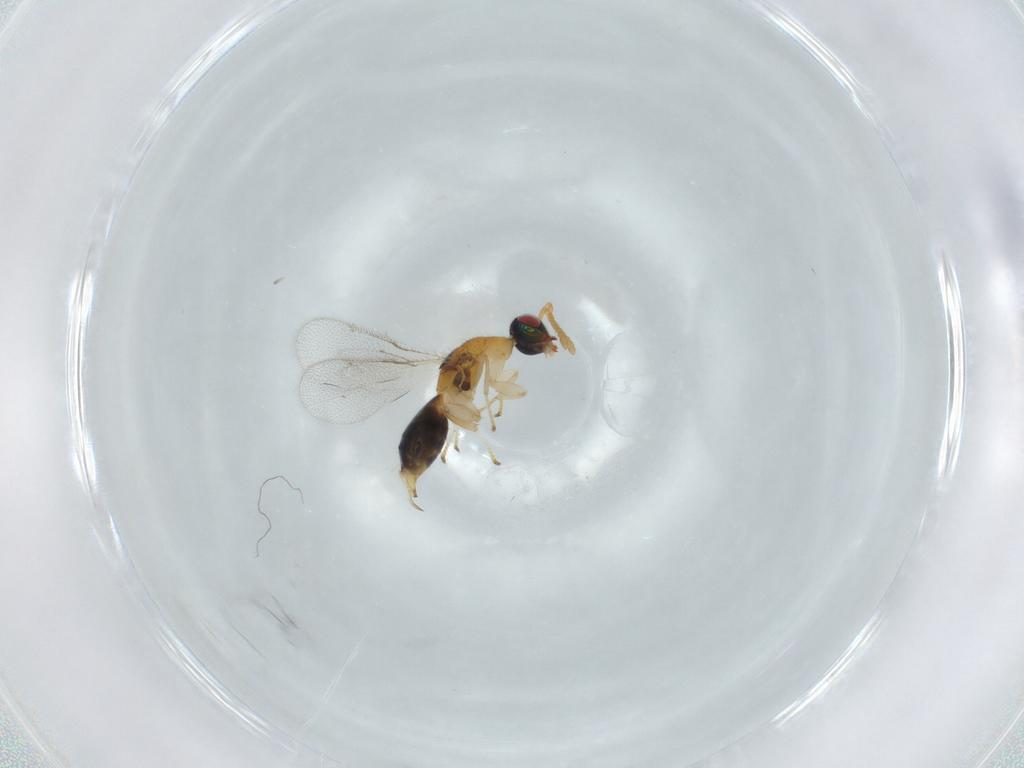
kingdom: Animalia
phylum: Arthropoda
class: Insecta
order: Hymenoptera
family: Torymidae
